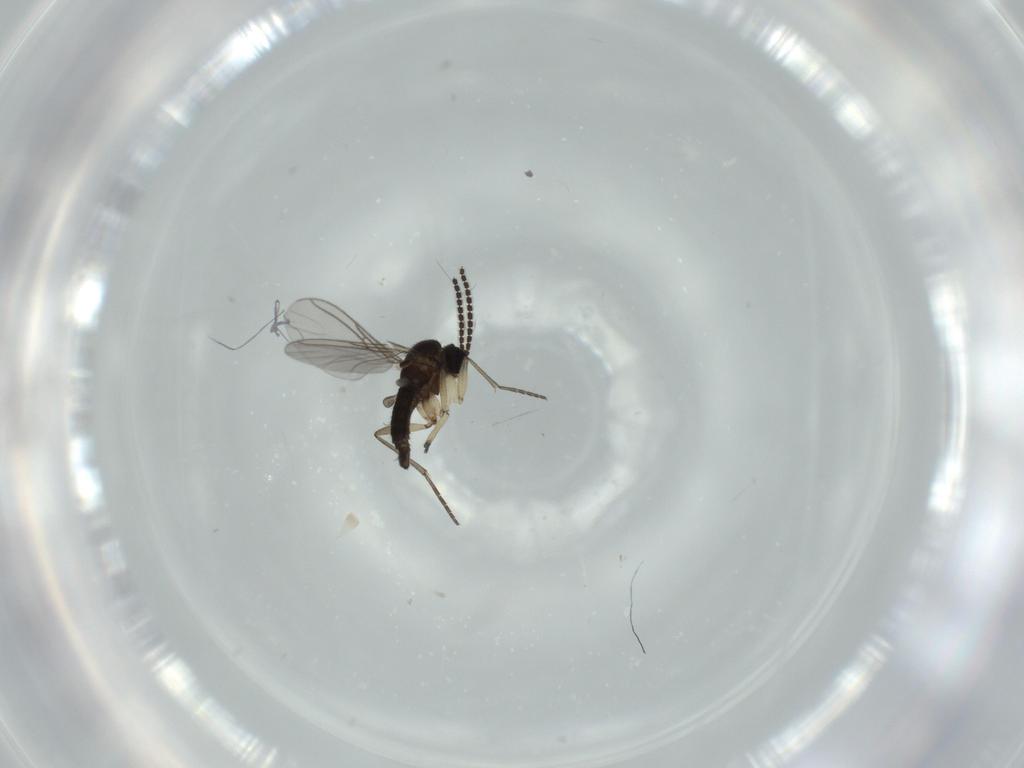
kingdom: Animalia
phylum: Arthropoda
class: Insecta
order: Diptera
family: Sciaridae
